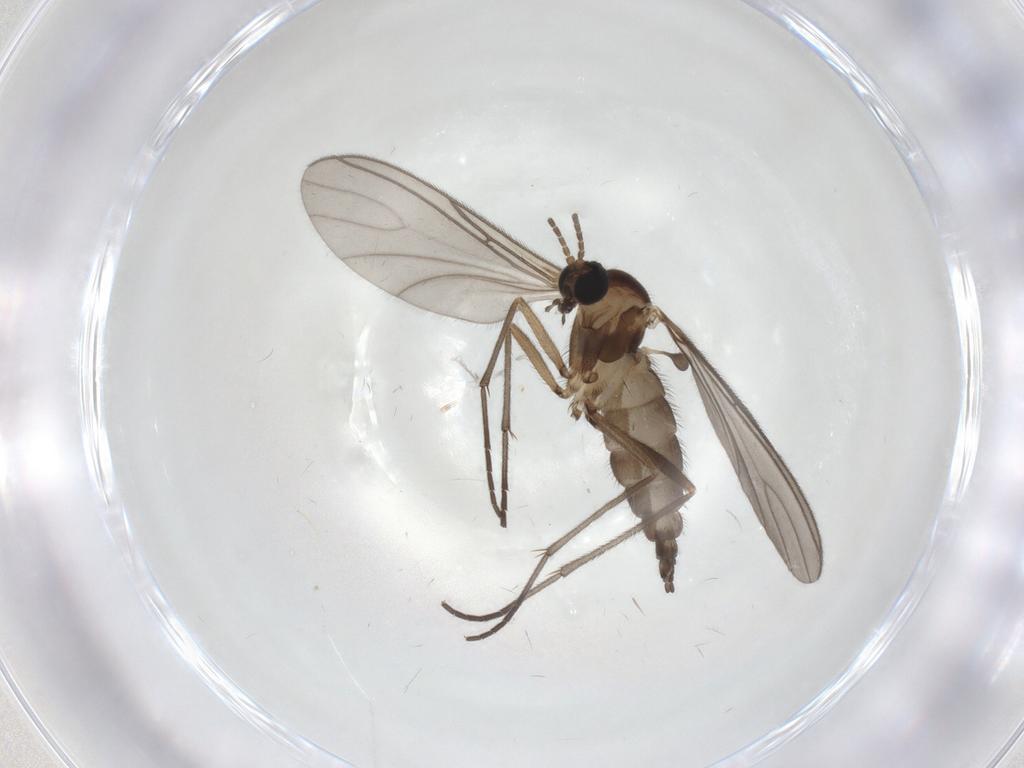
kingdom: Animalia
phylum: Arthropoda
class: Insecta
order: Diptera
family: Sciaridae
